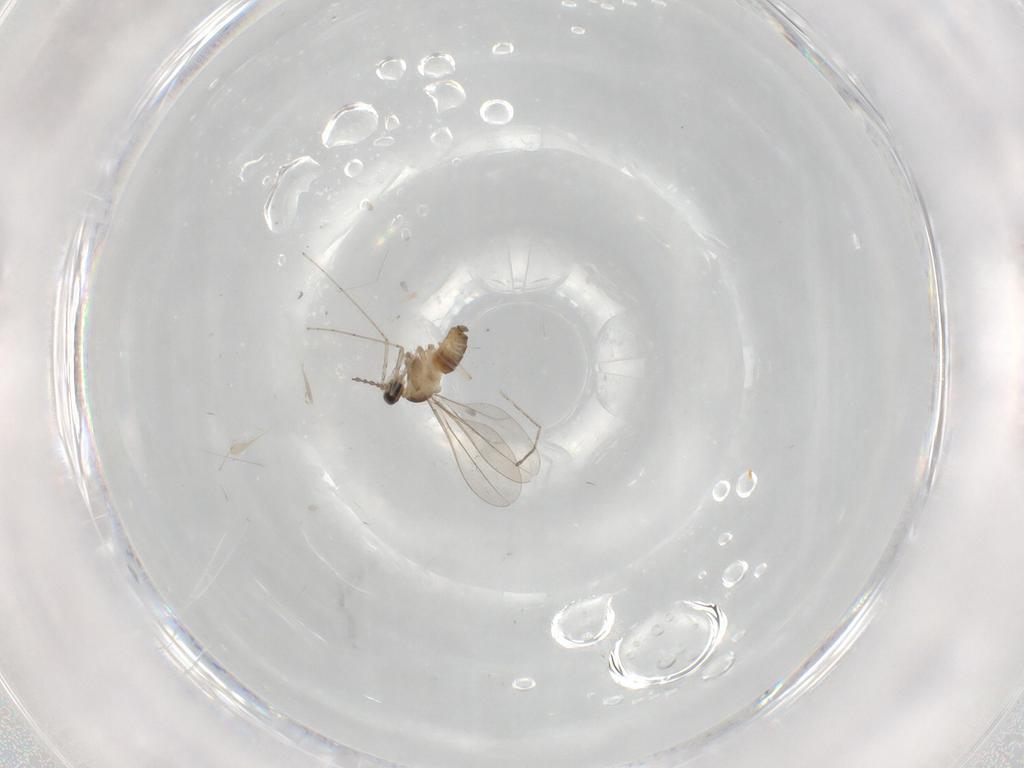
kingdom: Animalia
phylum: Arthropoda
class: Insecta
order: Diptera
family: Cecidomyiidae
